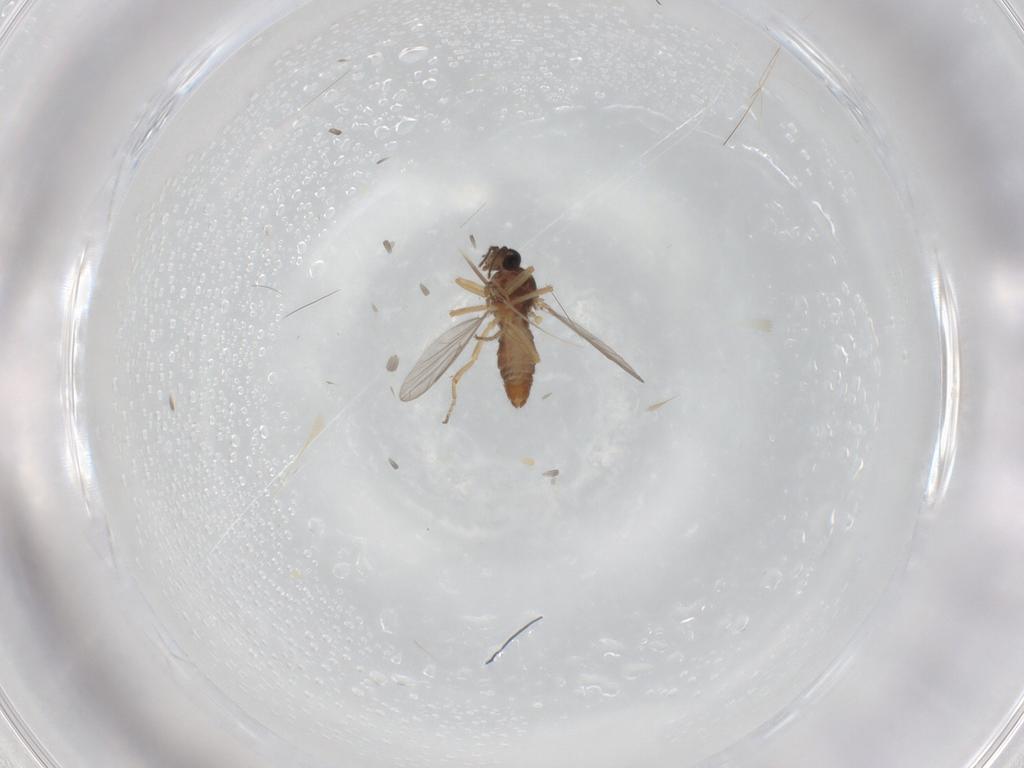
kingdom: Animalia
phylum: Arthropoda
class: Insecta
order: Diptera
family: Ceratopogonidae
